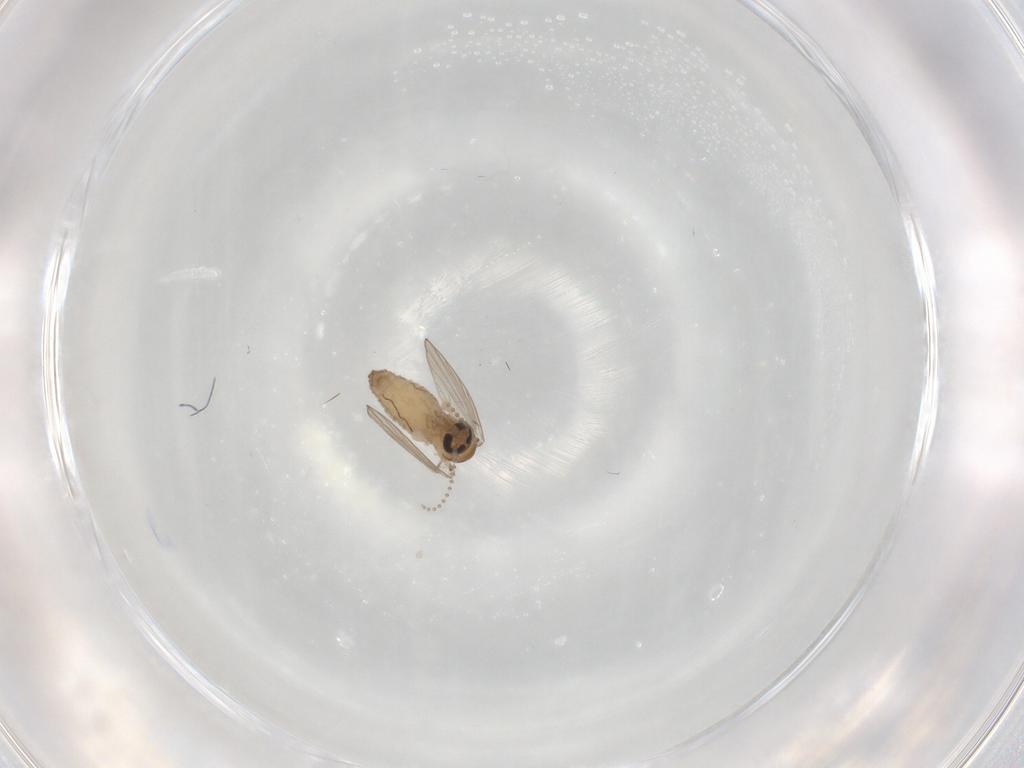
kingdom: Animalia
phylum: Arthropoda
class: Insecta
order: Diptera
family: Psychodidae
